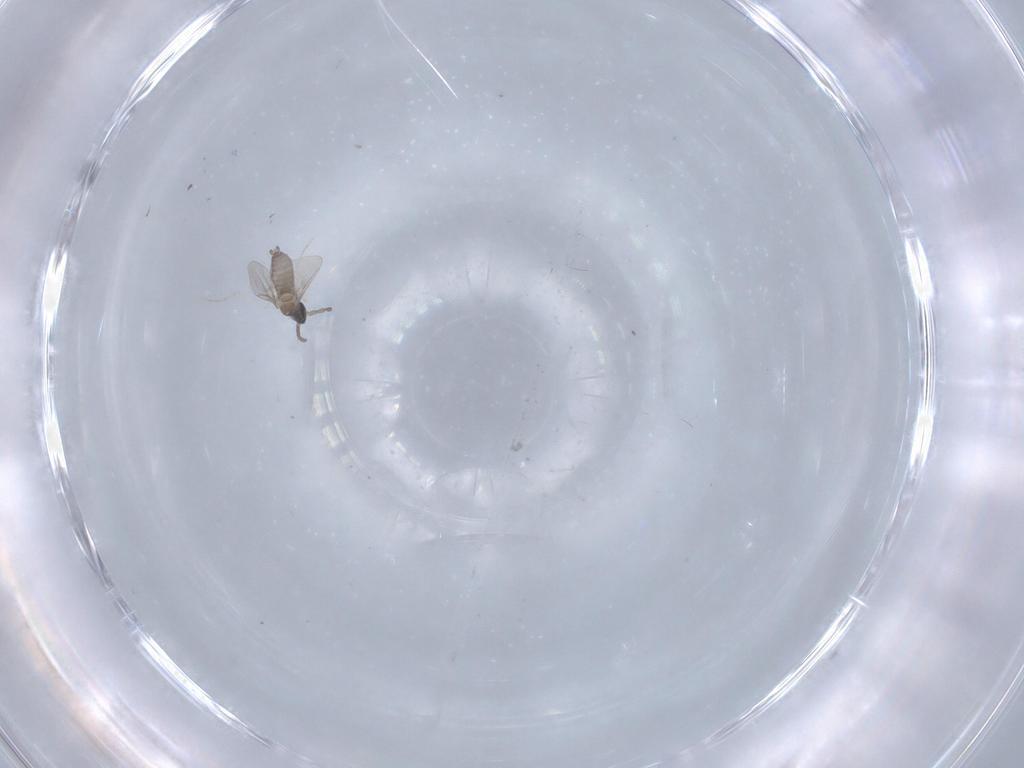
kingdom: Animalia
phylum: Arthropoda
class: Insecta
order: Diptera
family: Cecidomyiidae
